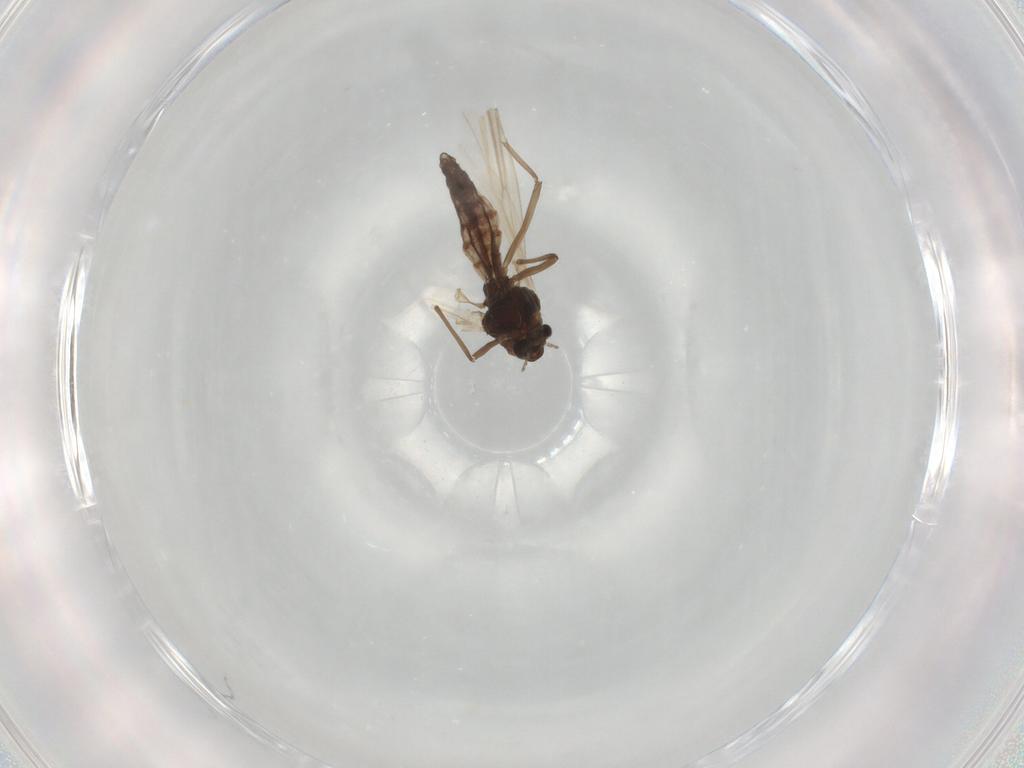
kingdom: Animalia
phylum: Arthropoda
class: Insecta
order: Diptera
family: Chironomidae
